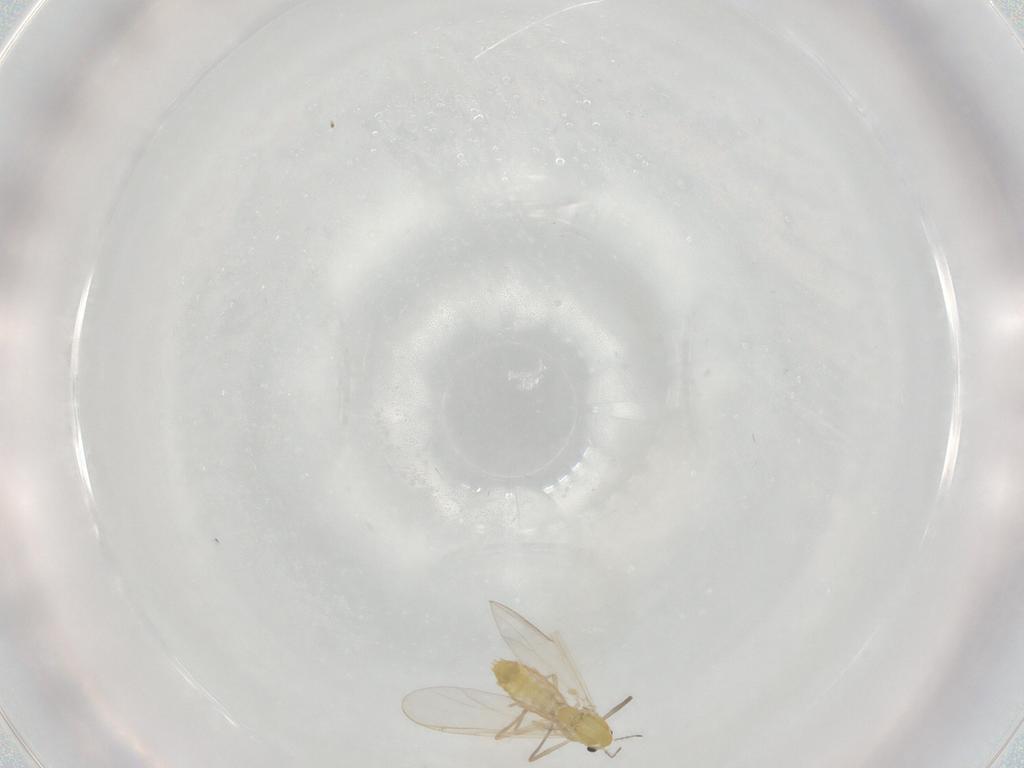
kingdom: Animalia
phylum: Arthropoda
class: Insecta
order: Diptera
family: Chironomidae
